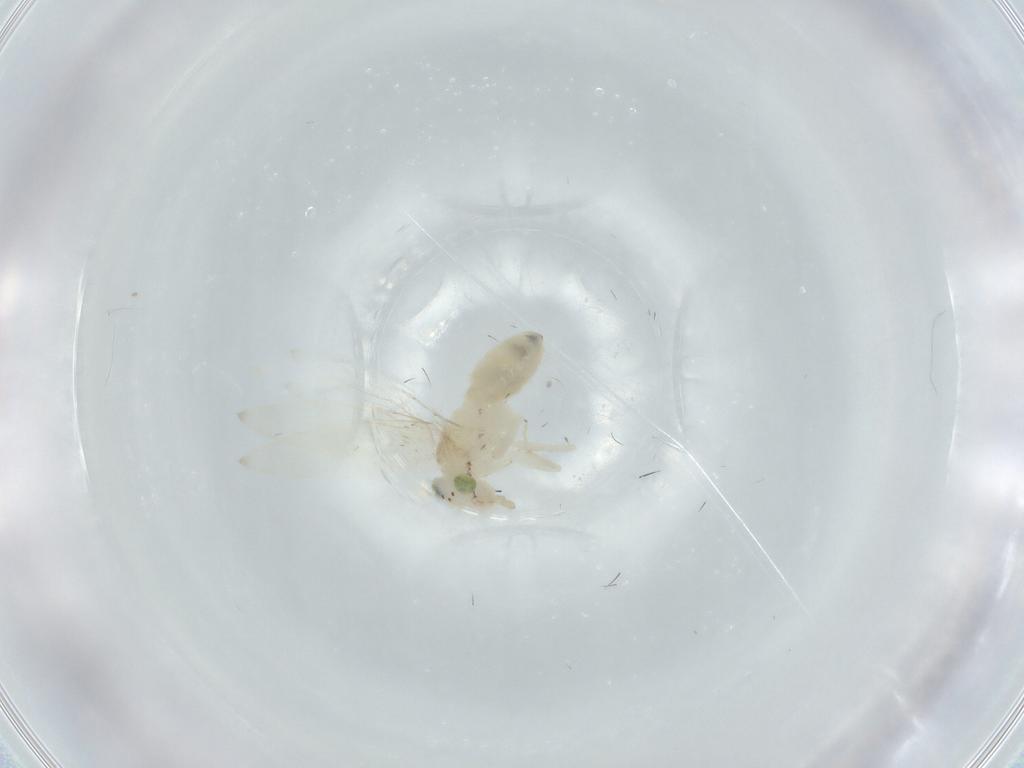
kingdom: Animalia
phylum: Arthropoda
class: Insecta
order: Psocodea
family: Lepidopsocidae
